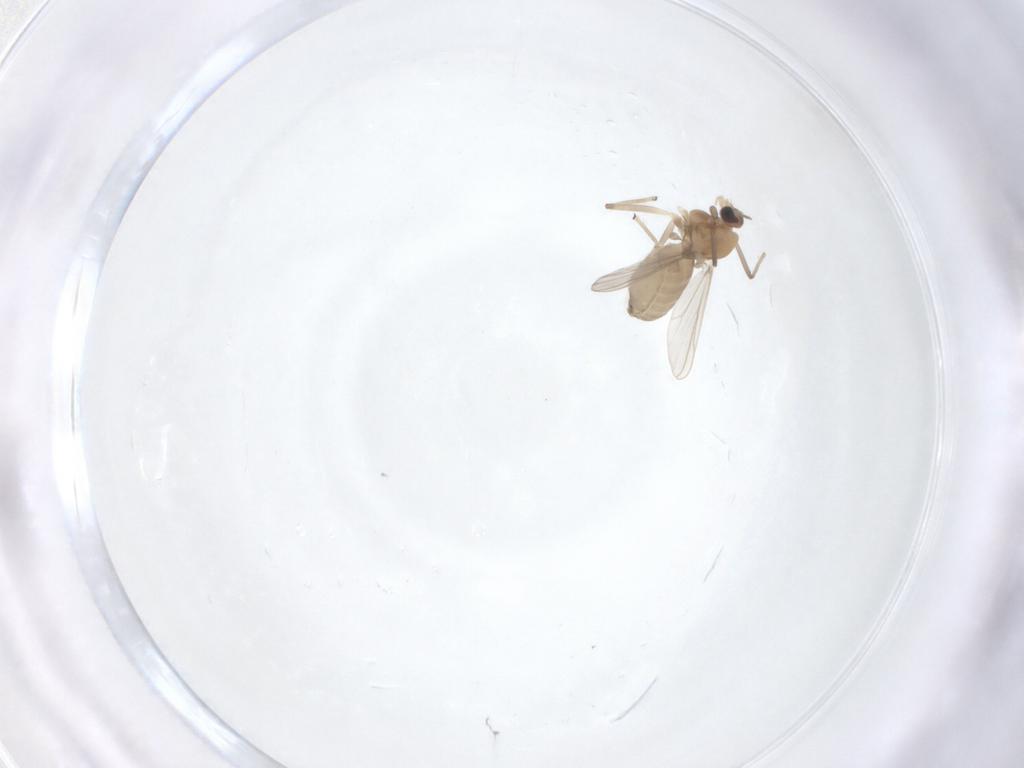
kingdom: Animalia
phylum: Arthropoda
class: Insecta
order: Diptera
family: Chironomidae
